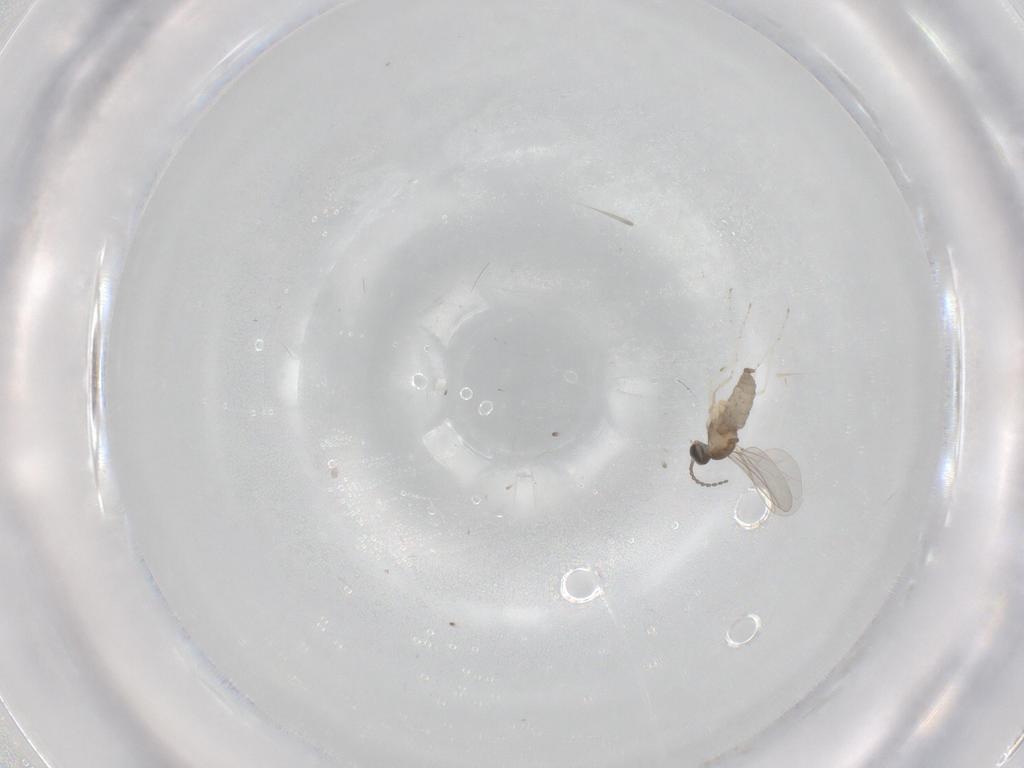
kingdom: Animalia
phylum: Arthropoda
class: Insecta
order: Diptera
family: Cecidomyiidae
